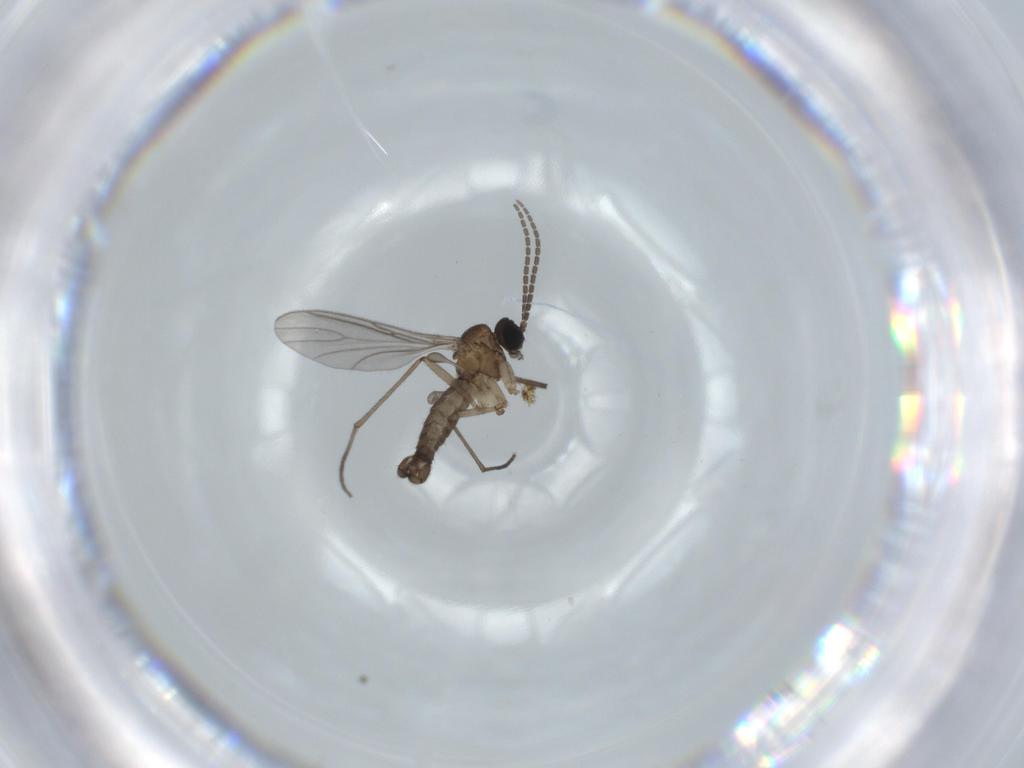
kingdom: Animalia
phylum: Arthropoda
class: Insecta
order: Diptera
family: Sciaridae
